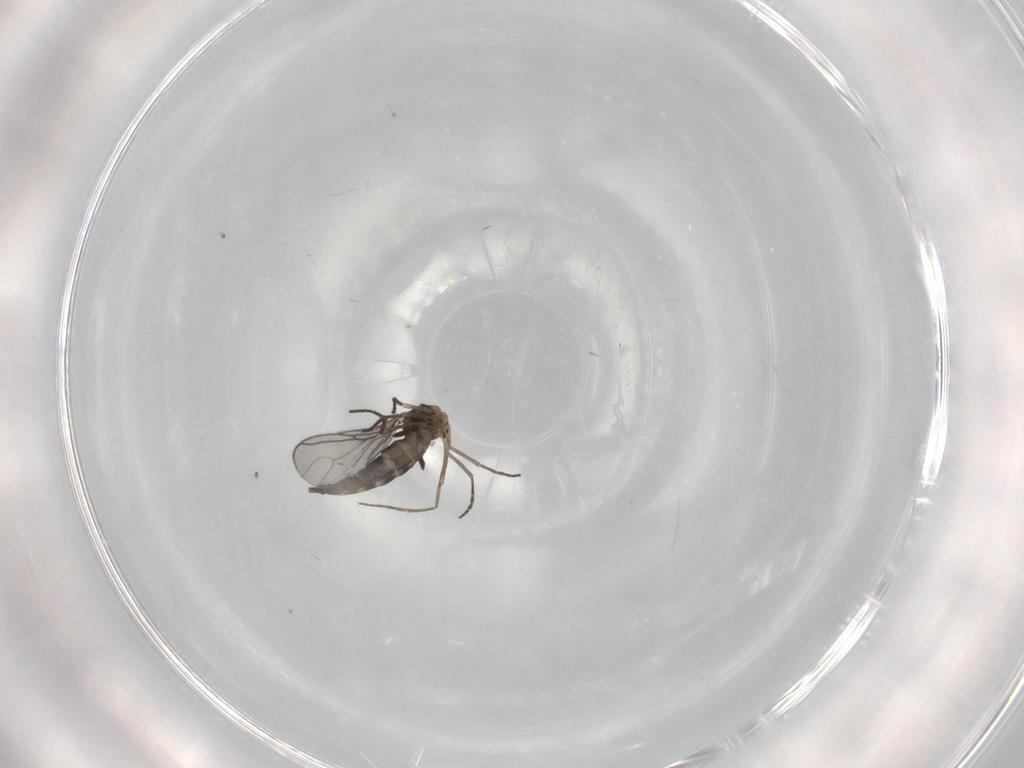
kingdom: Animalia
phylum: Arthropoda
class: Insecta
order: Diptera
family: Sciaridae
